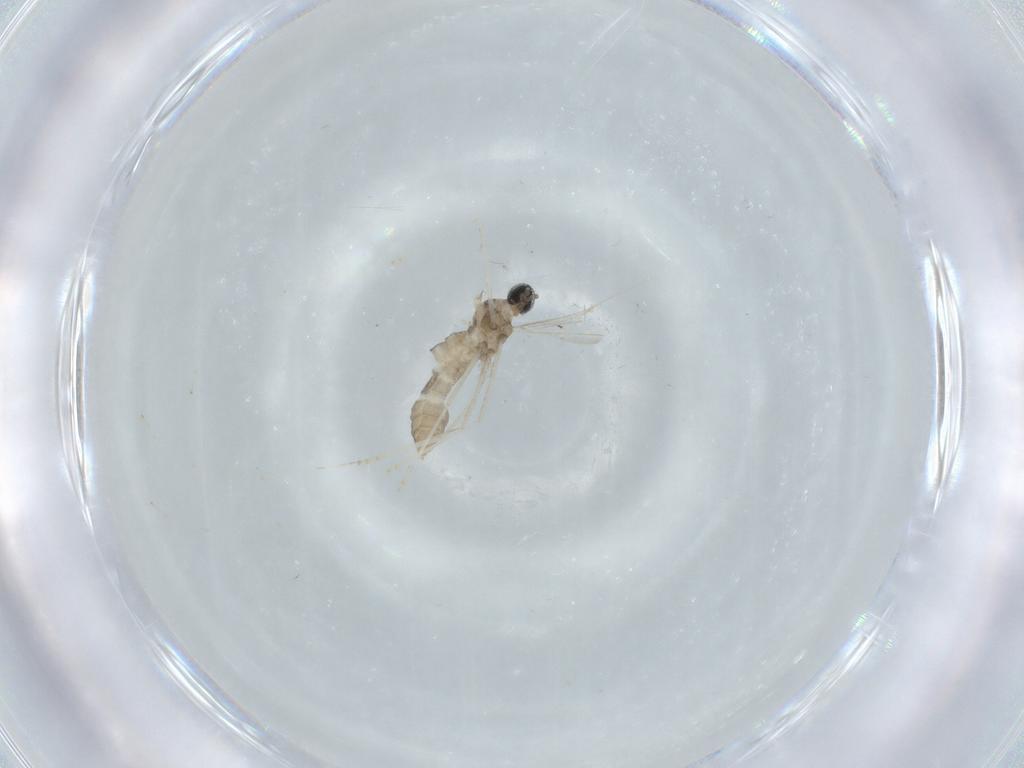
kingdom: Animalia
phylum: Arthropoda
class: Insecta
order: Diptera
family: Cecidomyiidae
